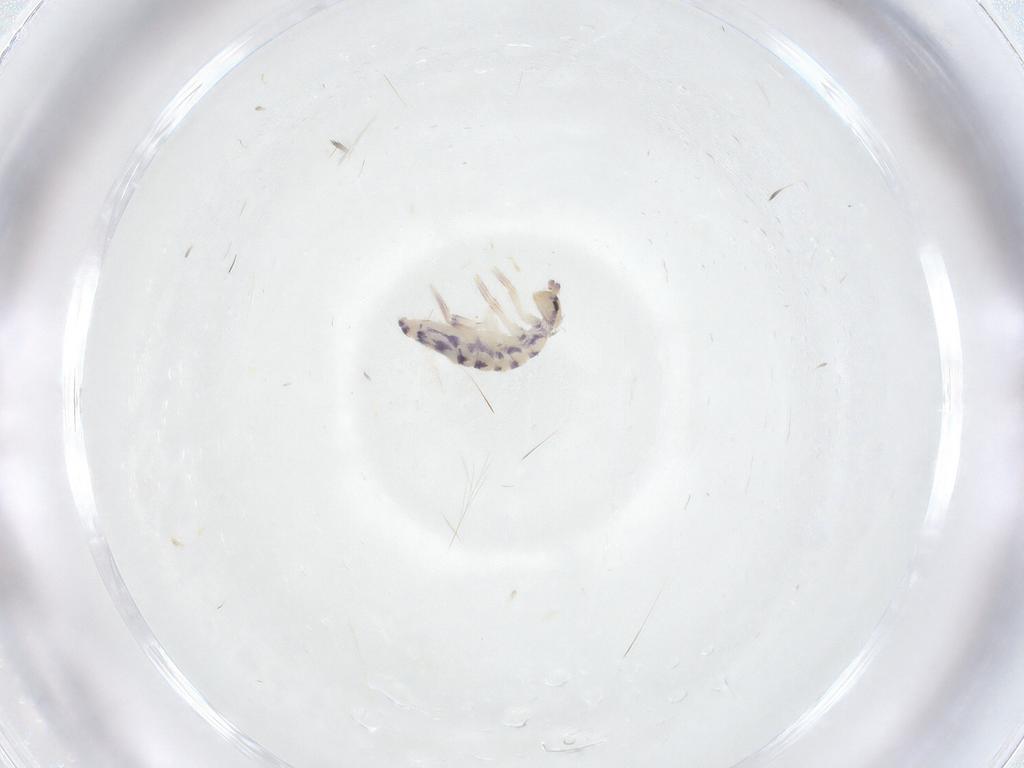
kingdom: Animalia
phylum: Arthropoda
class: Collembola
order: Entomobryomorpha
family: Entomobryidae
